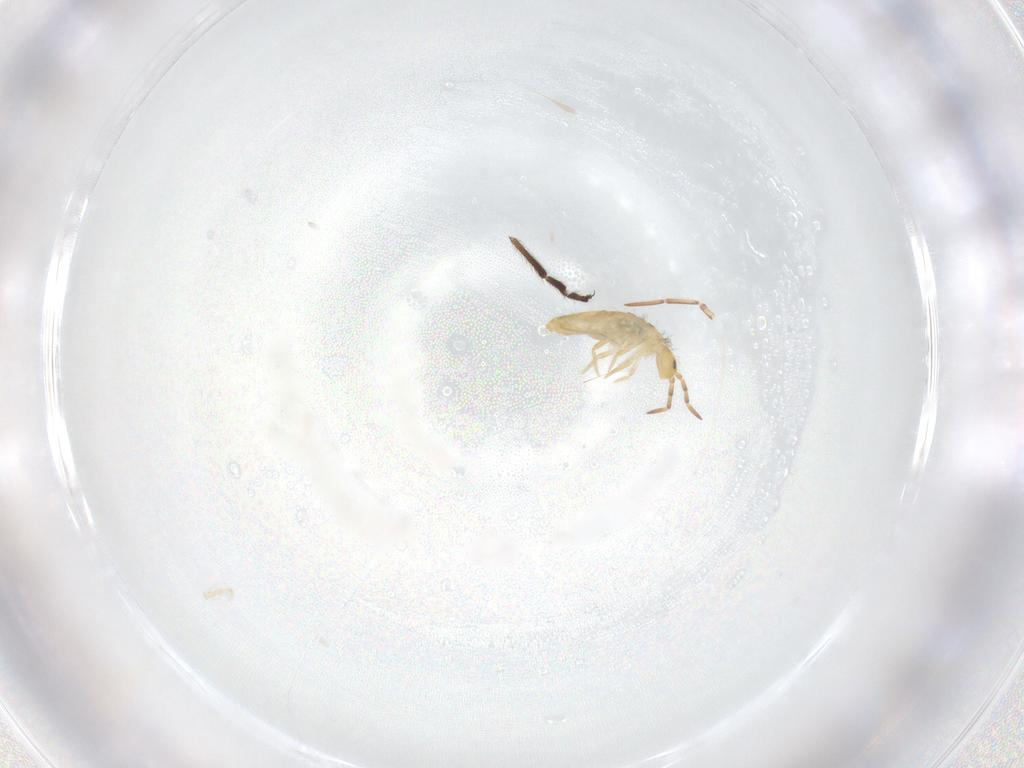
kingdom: Animalia
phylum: Arthropoda
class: Collembola
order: Entomobryomorpha
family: Entomobryidae
